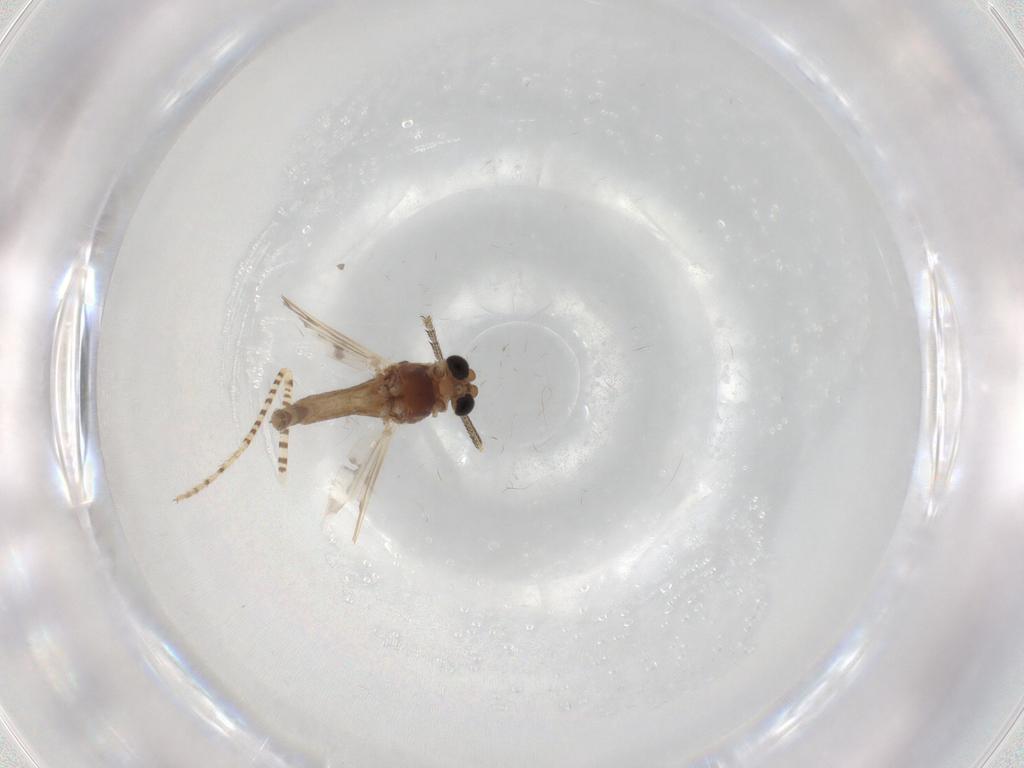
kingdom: Animalia
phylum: Arthropoda
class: Insecta
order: Diptera
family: Chironomidae
